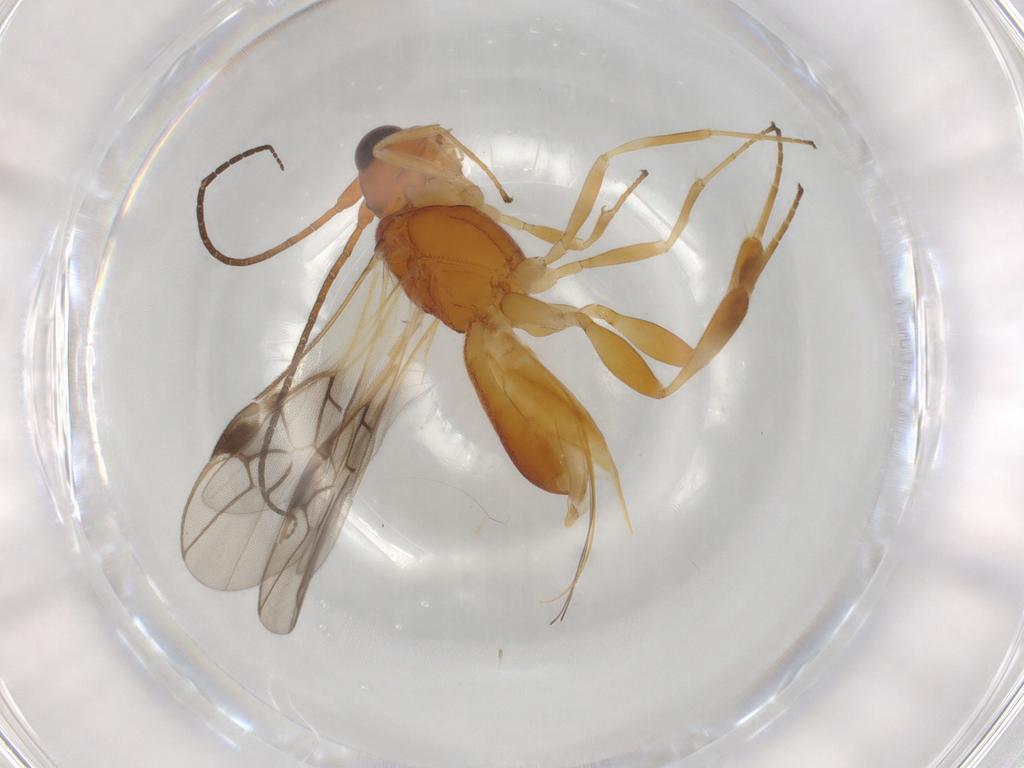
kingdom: Animalia
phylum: Arthropoda
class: Insecta
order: Hymenoptera
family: Braconidae
